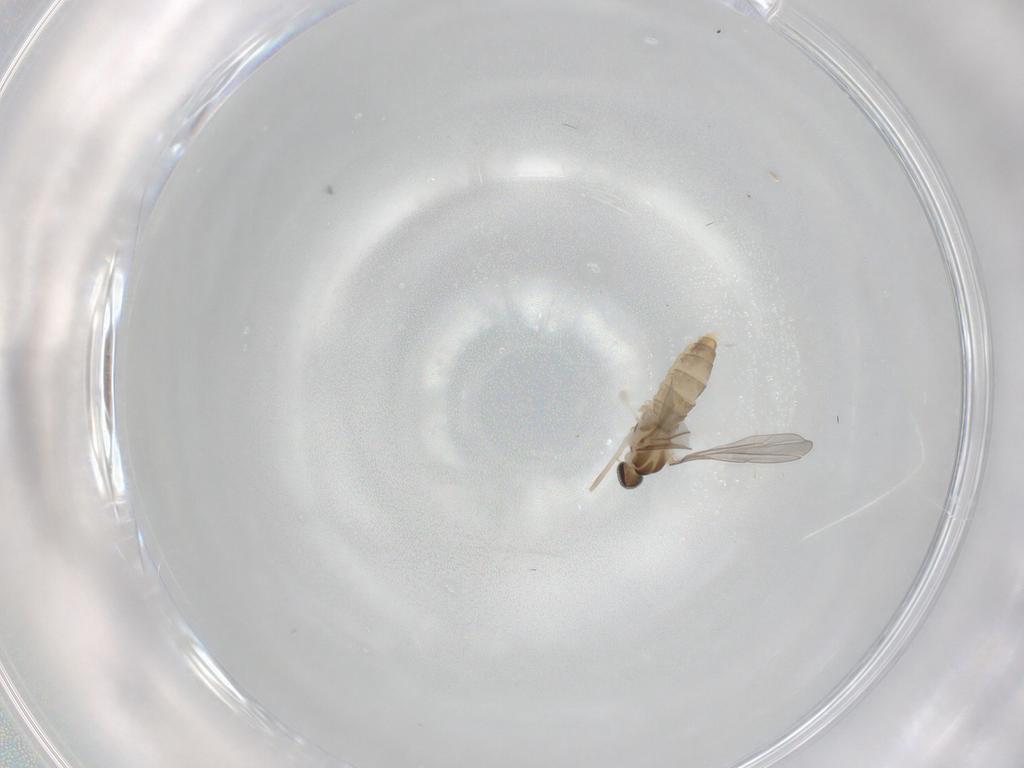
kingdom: Animalia
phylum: Arthropoda
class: Insecta
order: Diptera
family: Cecidomyiidae
